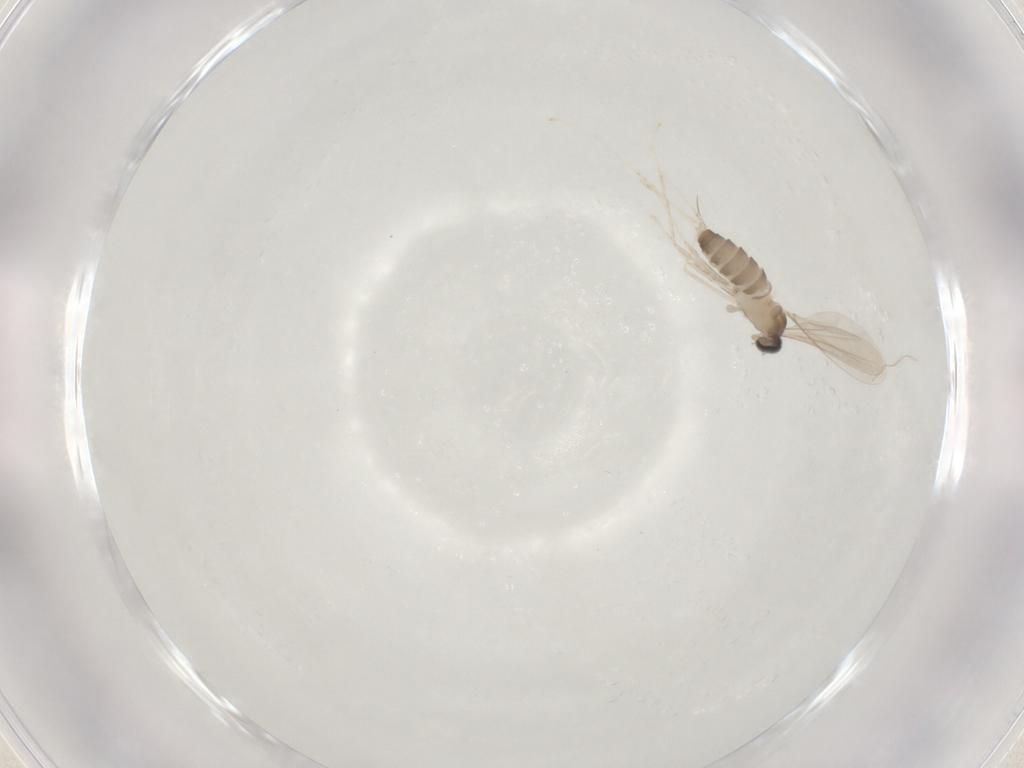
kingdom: Animalia
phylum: Arthropoda
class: Insecta
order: Diptera
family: Cecidomyiidae
